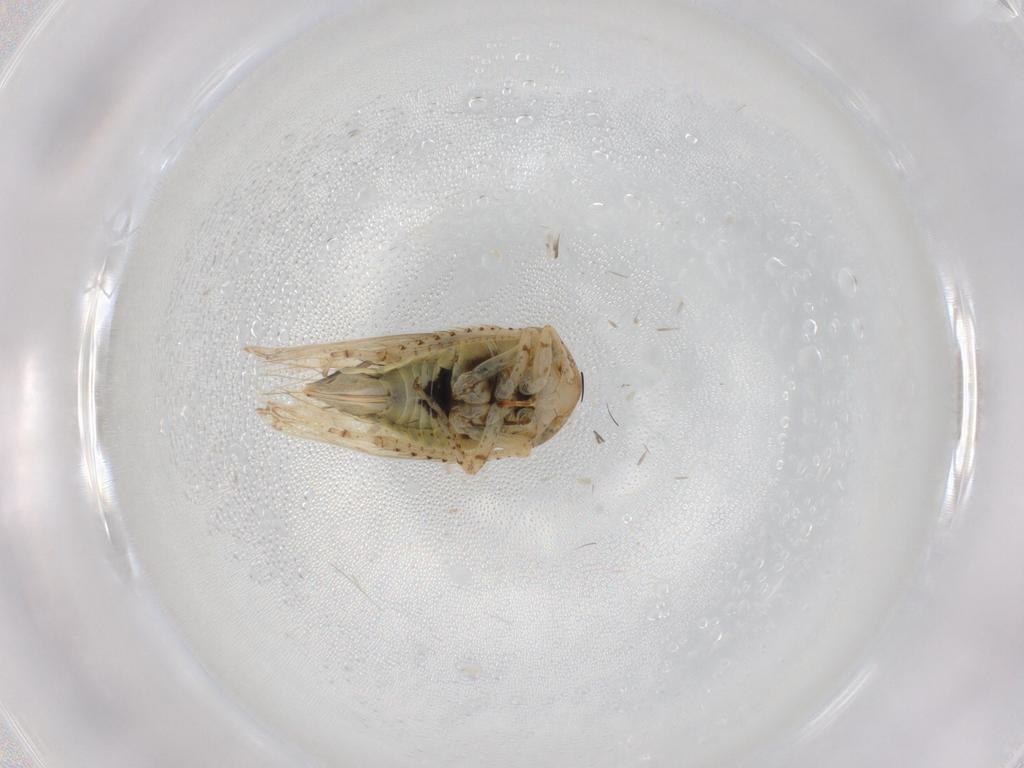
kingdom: Animalia
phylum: Arthropoda
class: Insecta
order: Hemiptera
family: Cicadellidae
